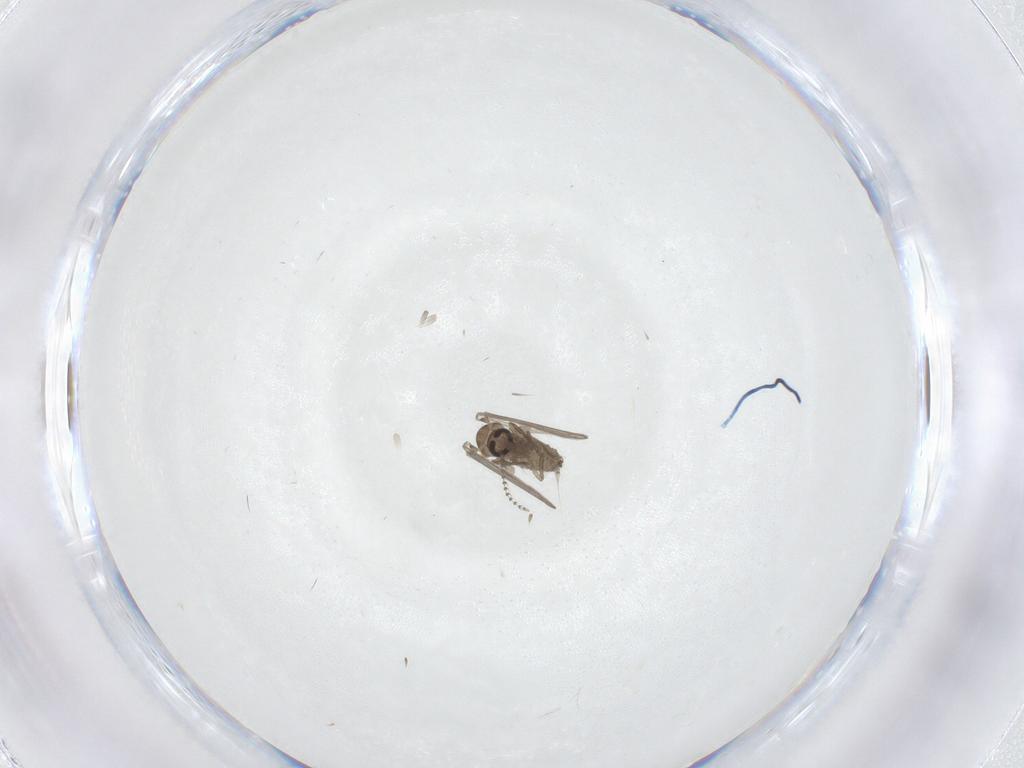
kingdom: Animalia
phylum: Arthropoda
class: Insecta
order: Diptera
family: Psychodidae
